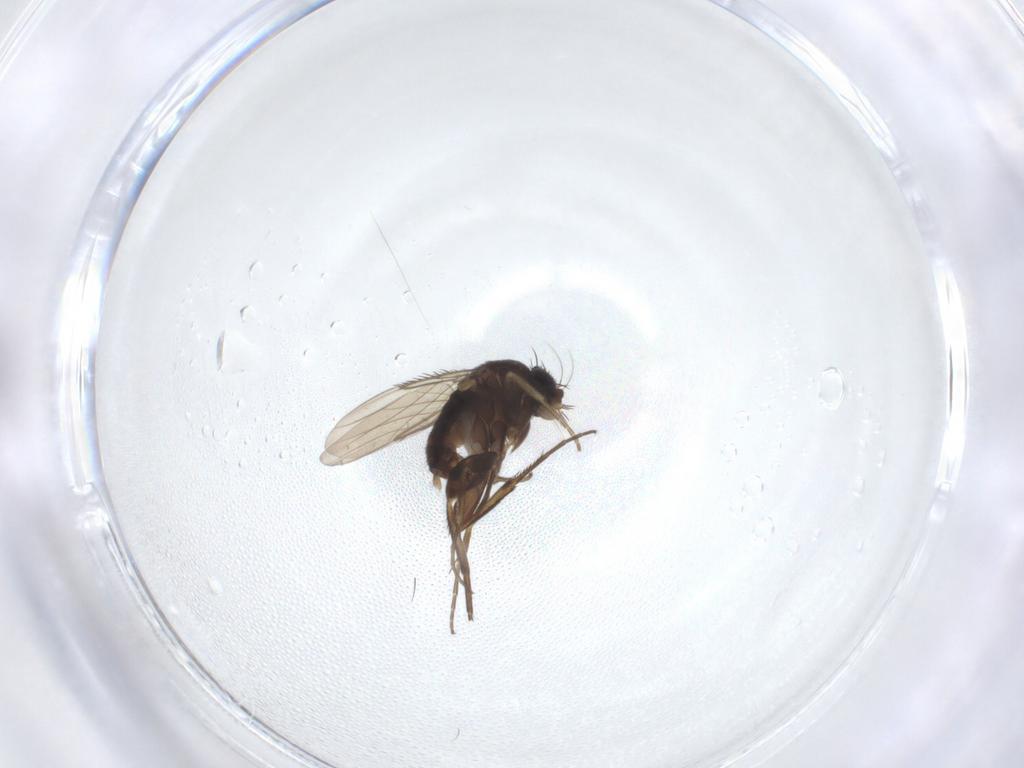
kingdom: Animalia
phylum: Arthropoda
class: Insecta
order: Diptera
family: Phoridae
